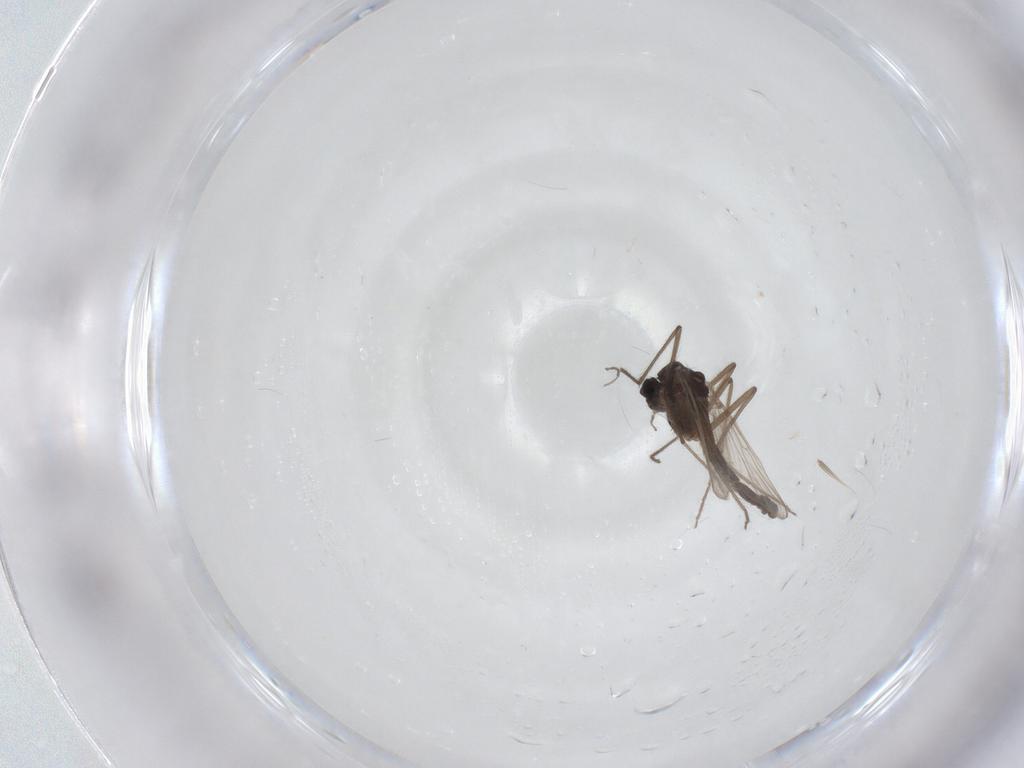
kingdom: Animalia
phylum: Arthropoda
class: Insecta
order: Diptera
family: Chironomidae
